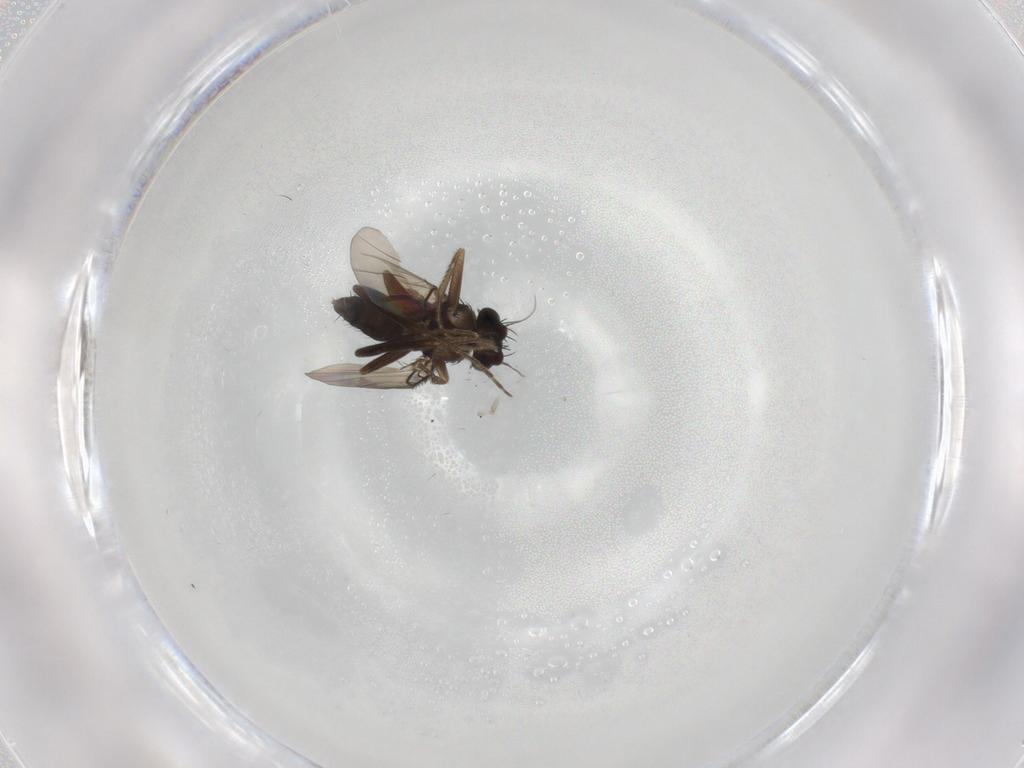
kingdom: Animalia
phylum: Arthropoda
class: Insecta
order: Diptera
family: Phoridae
